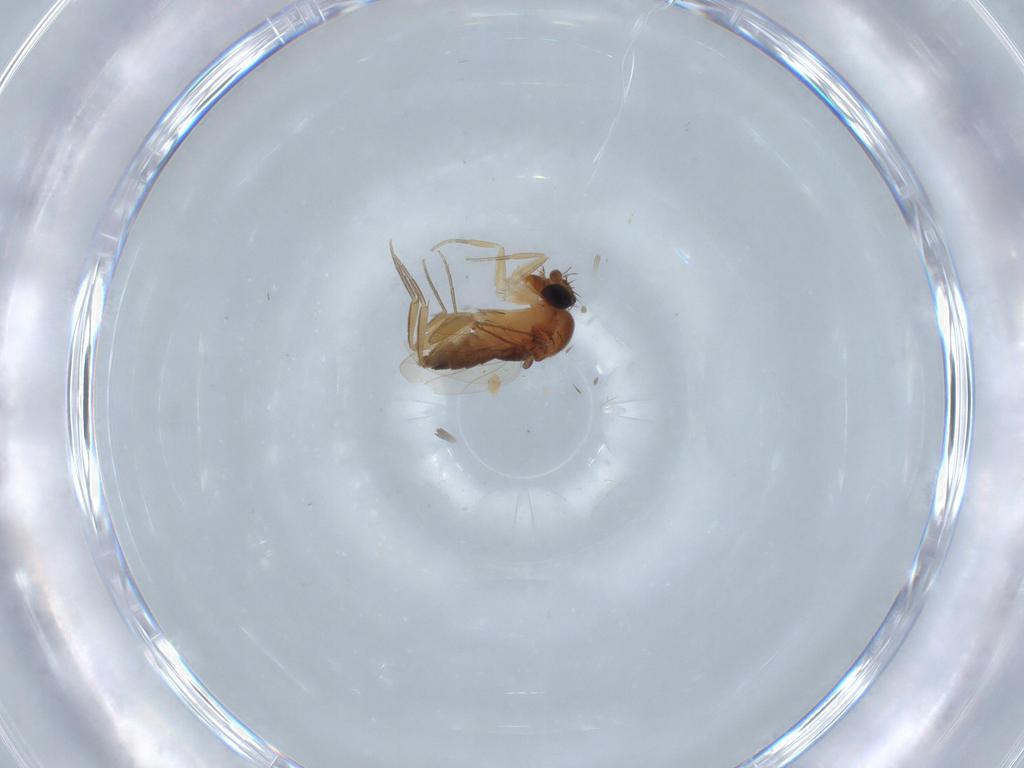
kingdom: Animalia
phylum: Arthropoda
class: Insecta
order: Diptera
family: Cecidomyiidae
